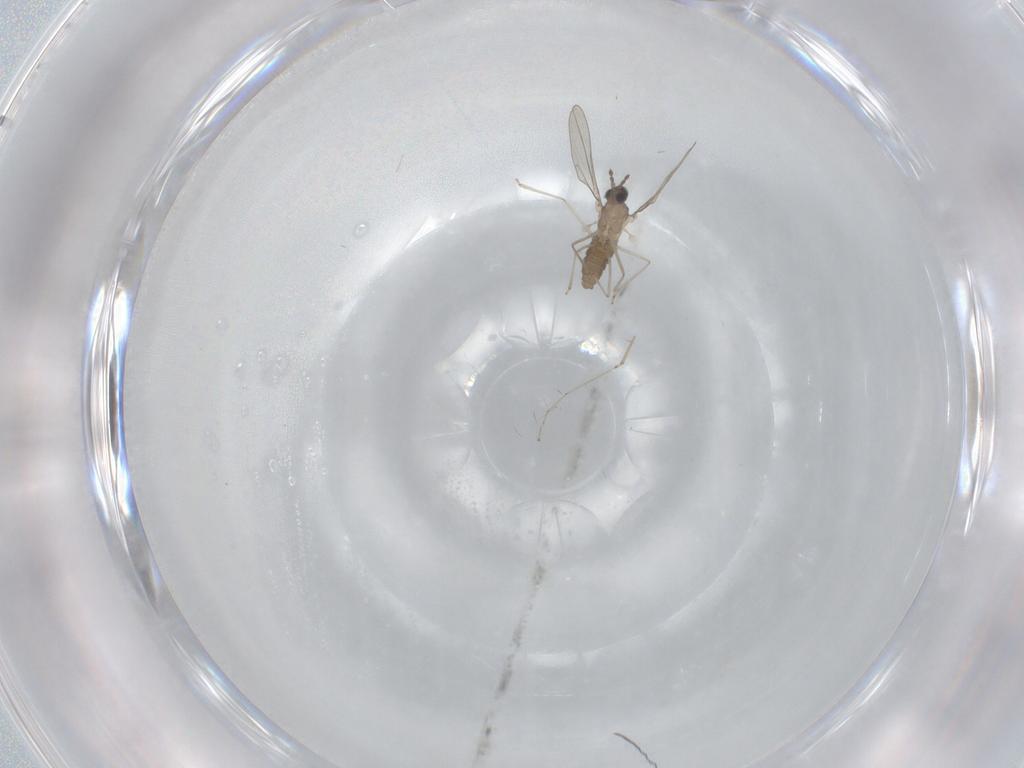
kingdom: Animalia
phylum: Arthropoda
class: Insecta
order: Diptera
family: Cecidomyiidae
